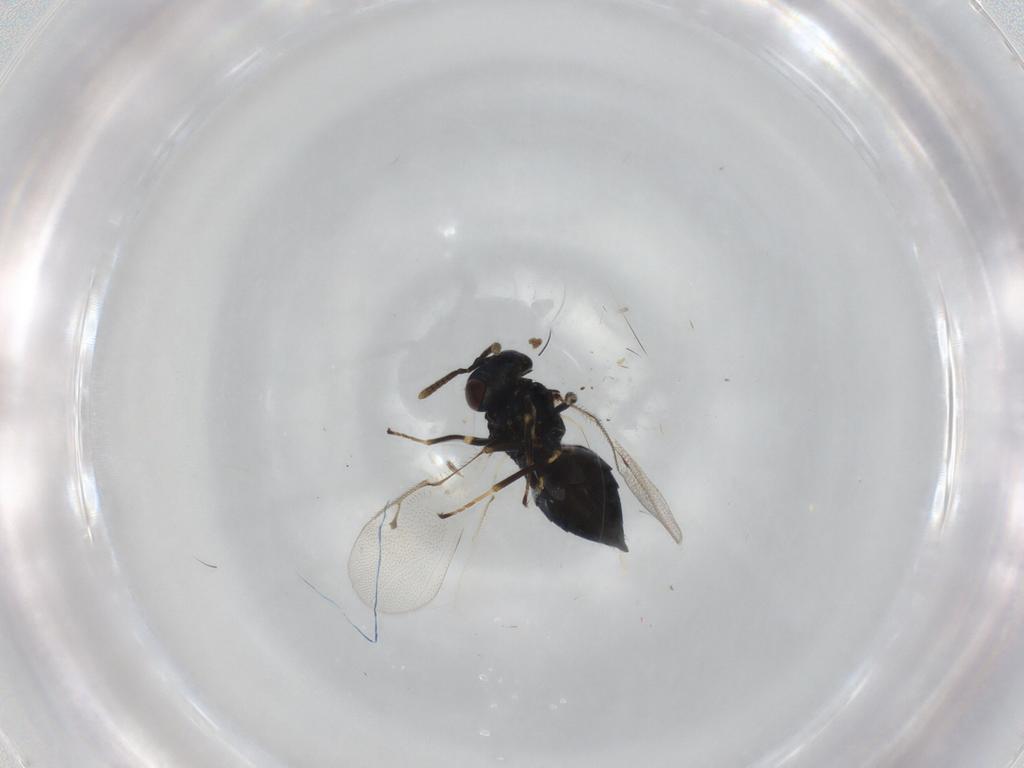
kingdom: Animalia
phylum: Arthropoda
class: Insecta
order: Hymenoptera
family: Pteromalidae
